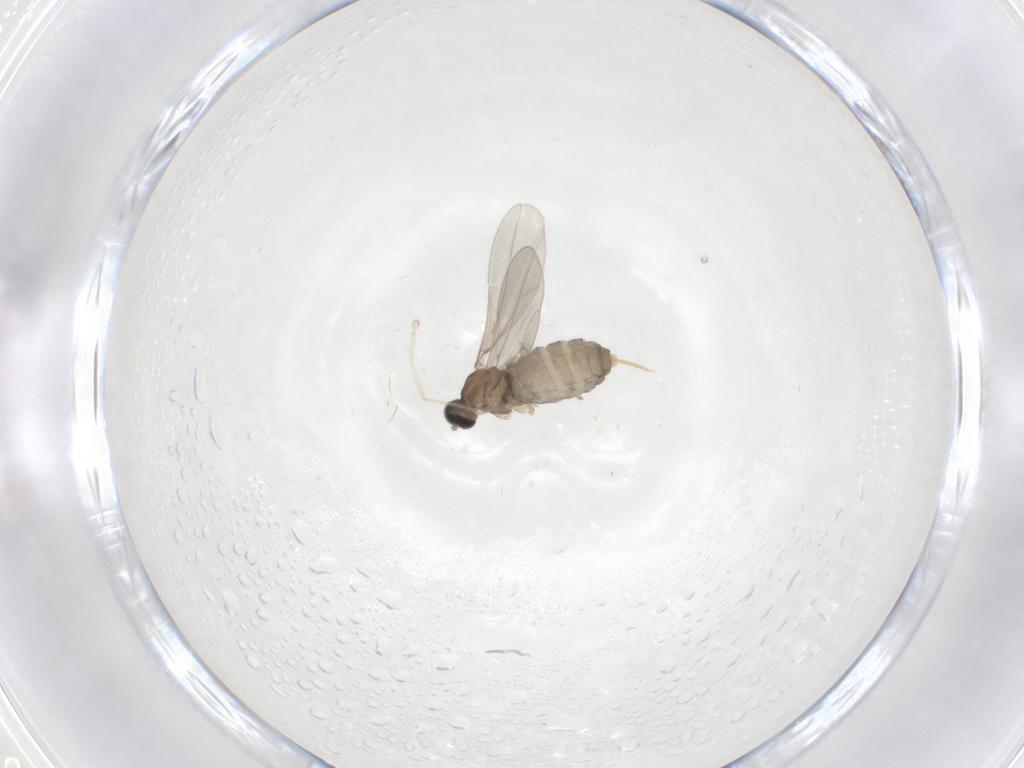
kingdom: Animalia
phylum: Arthropoda
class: Insecta
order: Diptera
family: Cecidomyiidae
